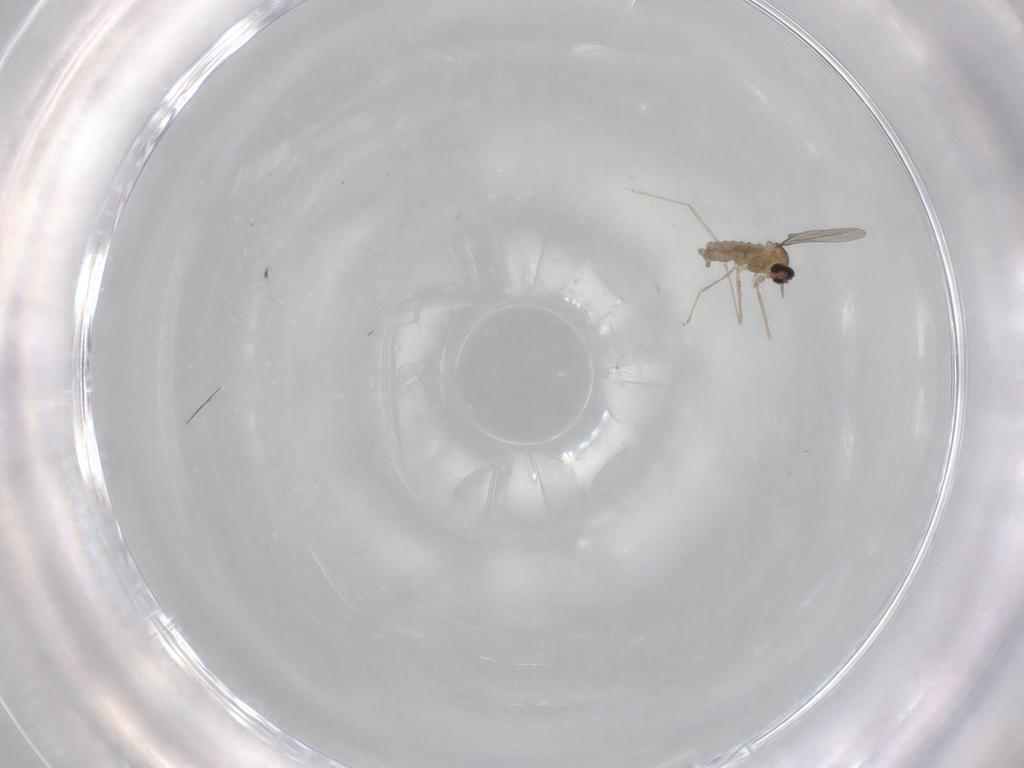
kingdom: Animalia
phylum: Arthropoda
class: Insecta
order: Diptera
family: Cecidomyiidae
